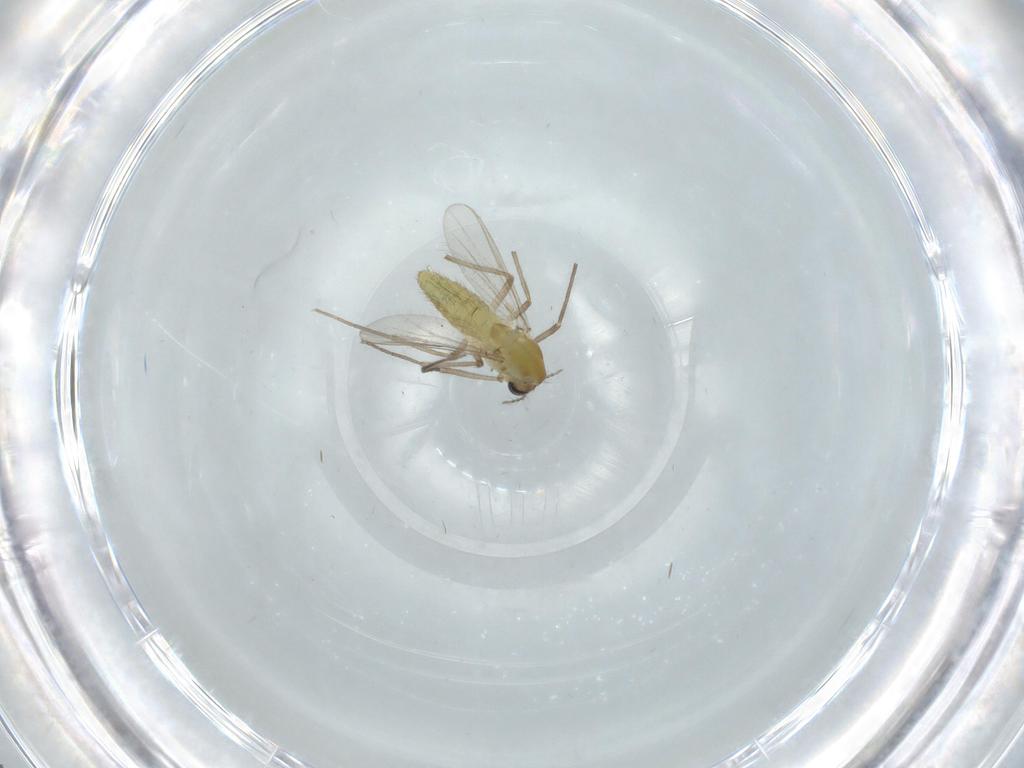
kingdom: Animalia
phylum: Arthropoda
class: Insecta
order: Diptera
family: Chironomidae
